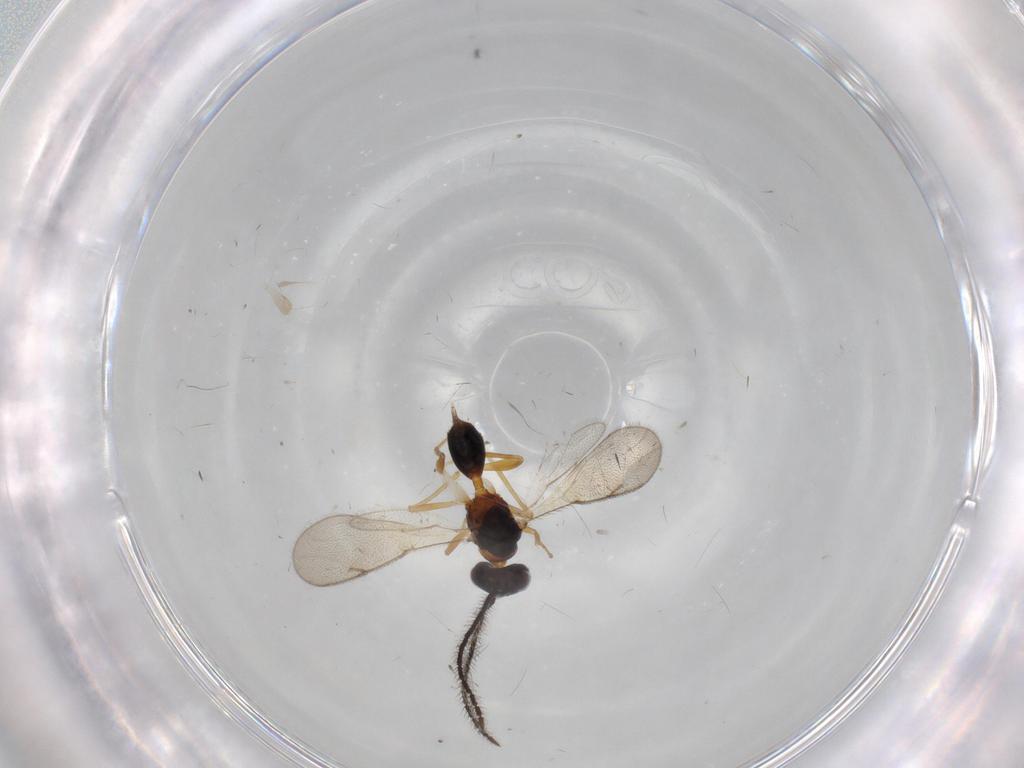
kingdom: Animalia
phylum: Arthropoda
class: Insecta
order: Hymenoptera
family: Diparidae
